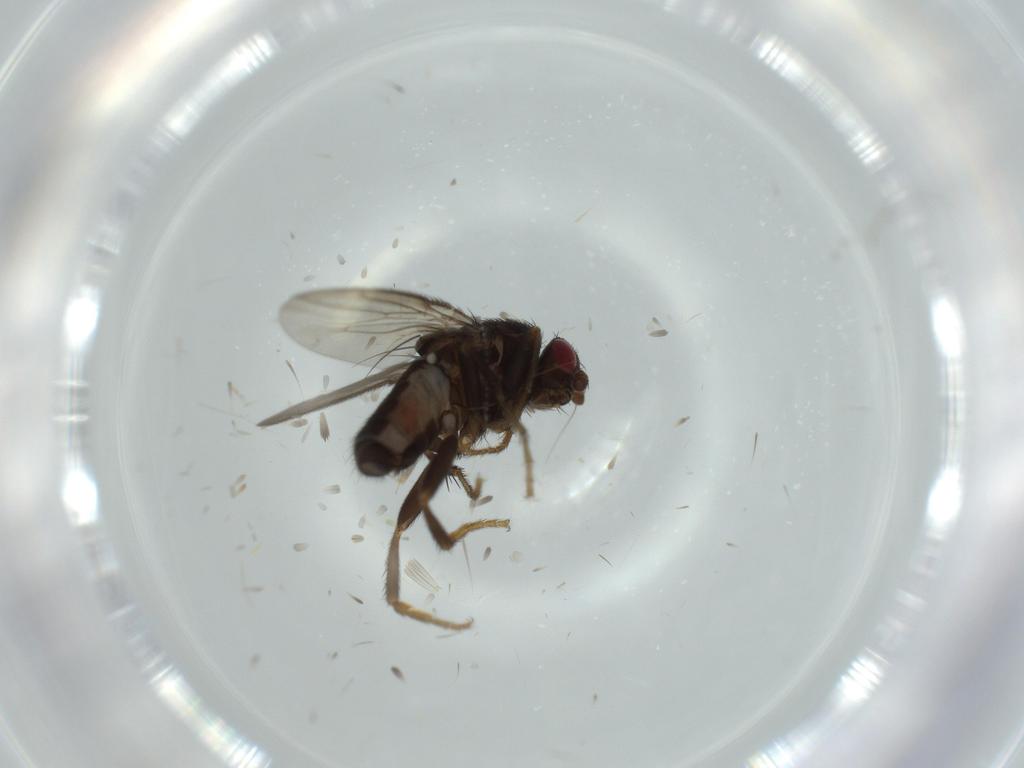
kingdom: Animalia
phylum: Arthropoda
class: Insecta
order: Diptera
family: Sphaeroceridae
